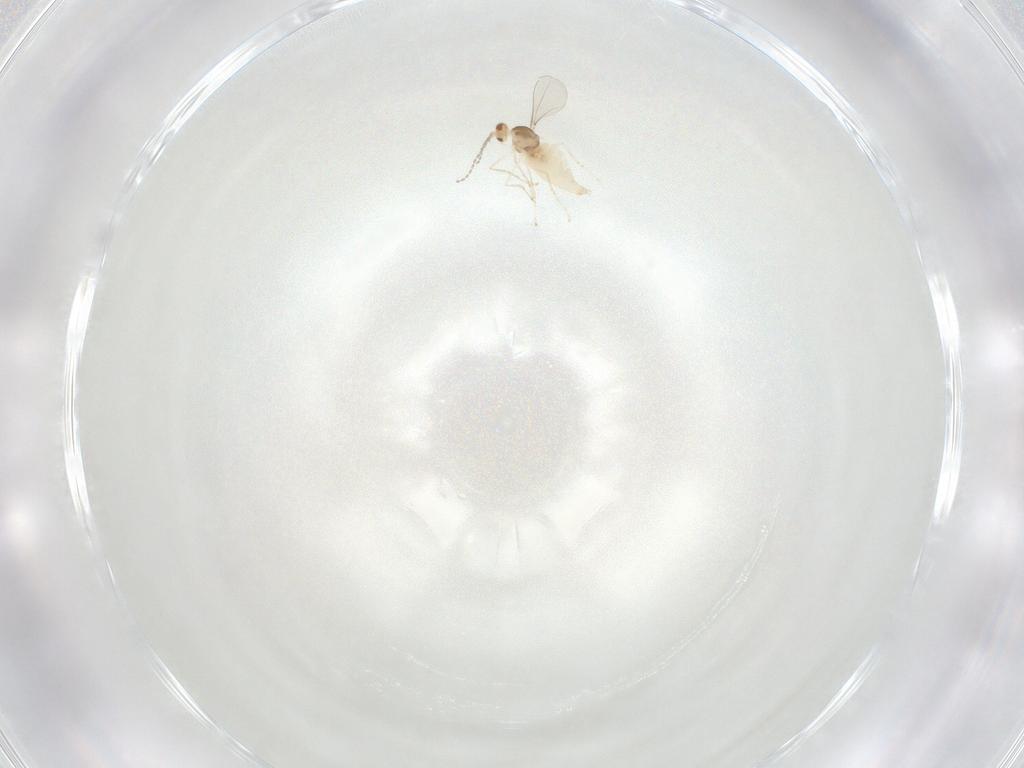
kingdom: Animalia
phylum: Arthropoda
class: Insecta
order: Diptera
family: Cecidomyiidae
